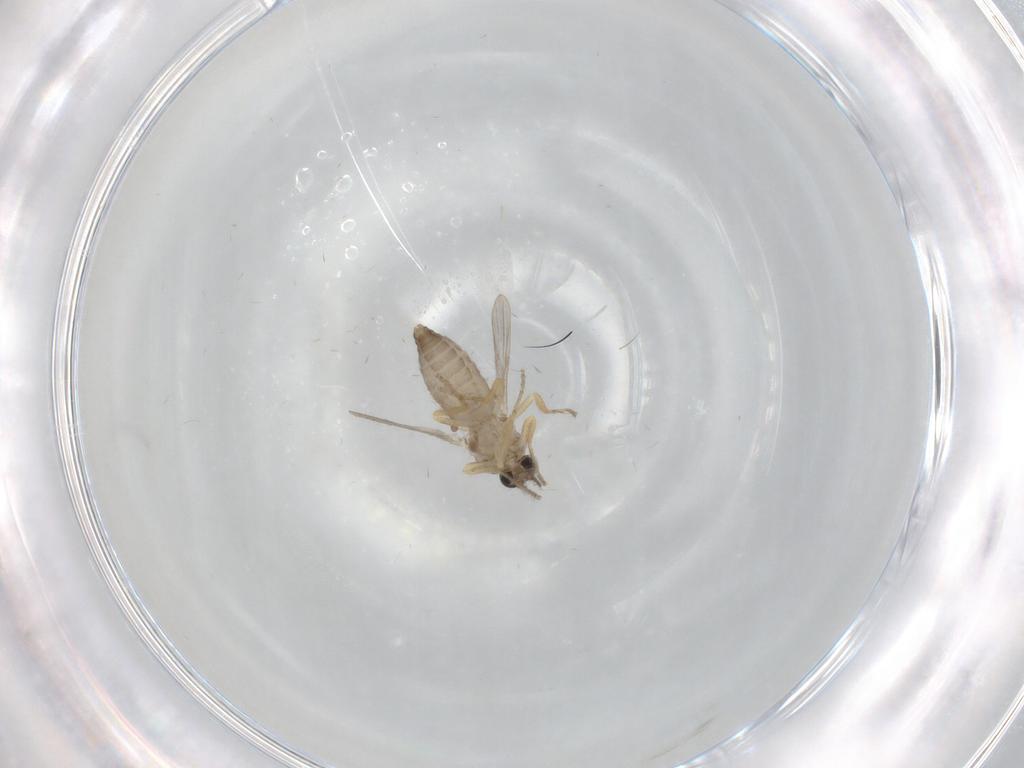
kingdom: Animalia
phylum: Arthropoda
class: Insecta
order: Diptera
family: Ceratopogonidae
